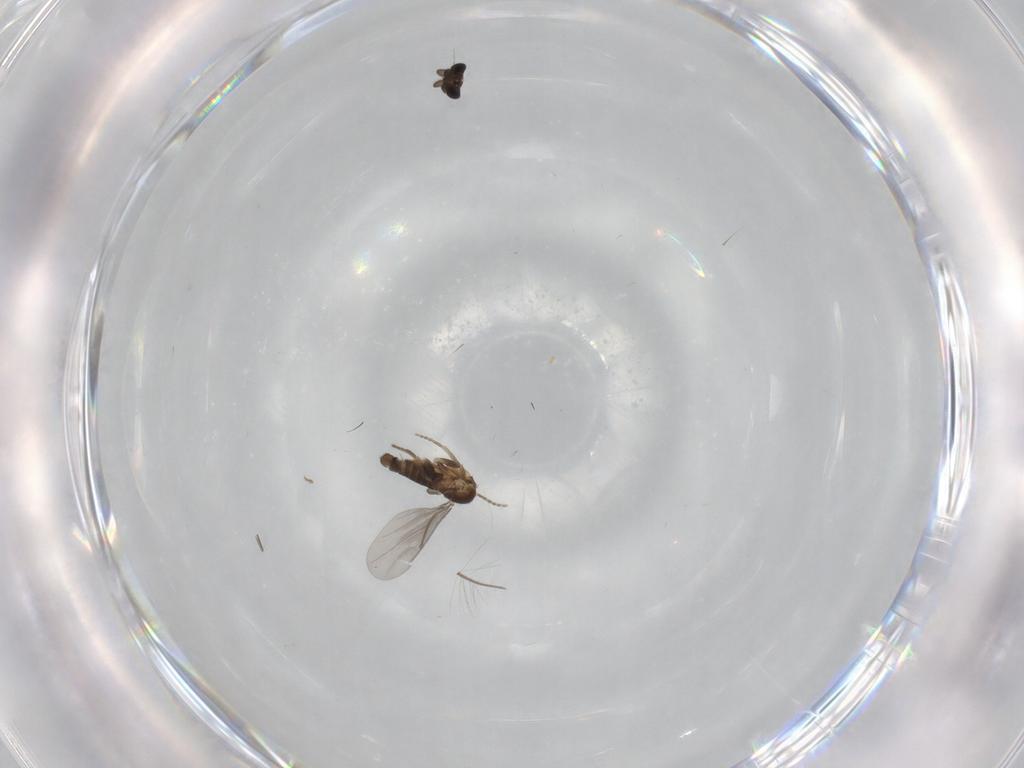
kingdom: Animalia
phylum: Arthropoda
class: Insecta
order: Diptera
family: Phoridae
